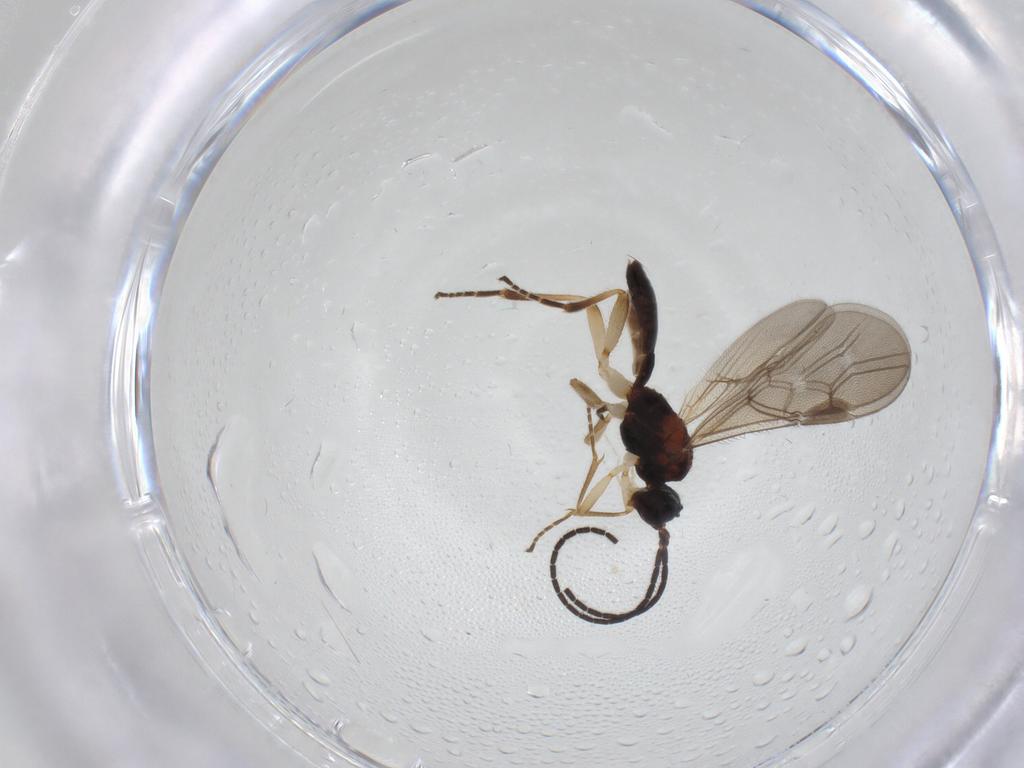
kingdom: Animalia
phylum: Arthropoda
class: Insecta
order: Hymenoptera
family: Braconidae
